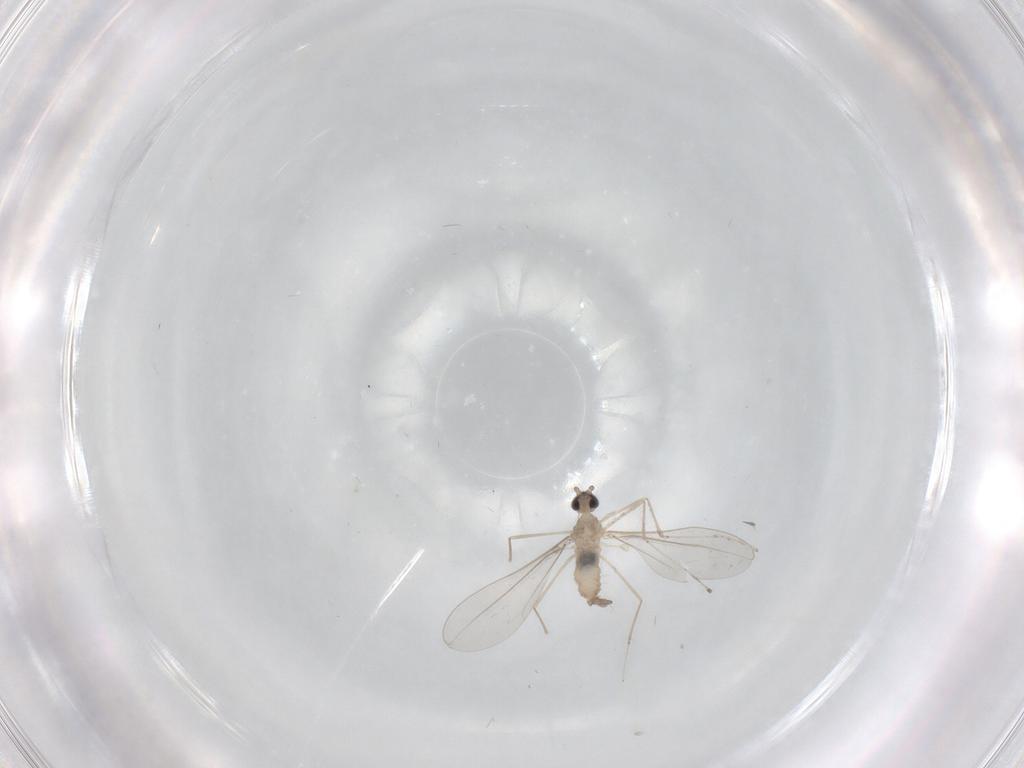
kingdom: Animalia
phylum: Arthropoda
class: Insecta
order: Diptera
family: Cecidomyiidae
